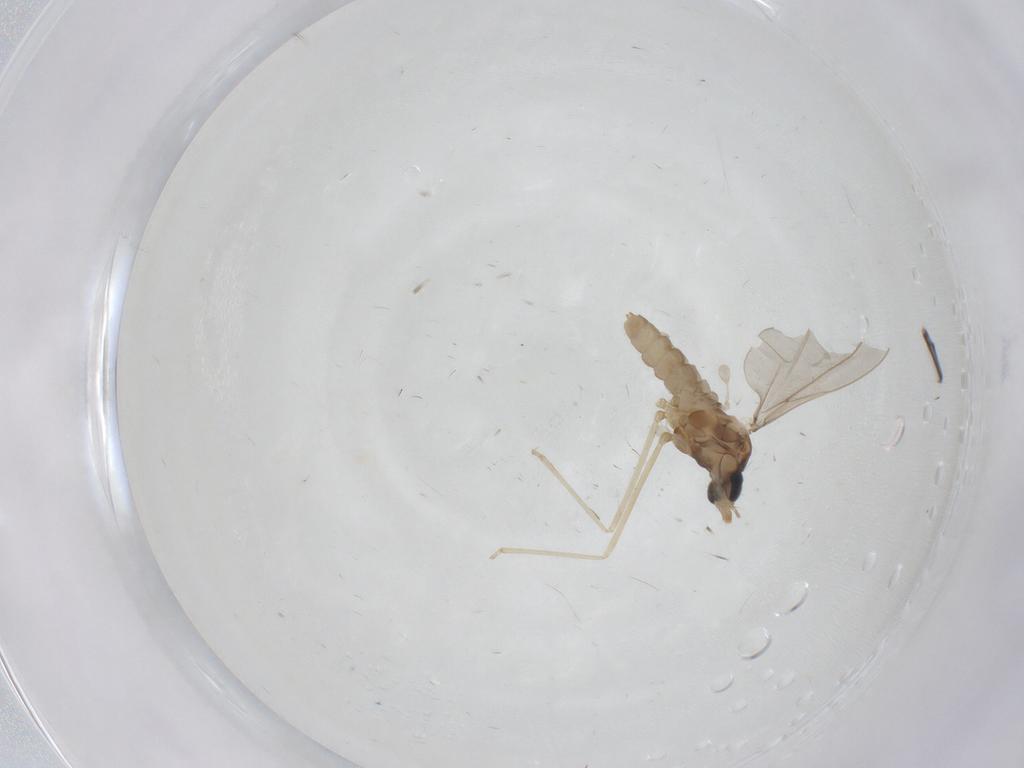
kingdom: Animalia
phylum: Arthropoda
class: Insecta
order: Diptera
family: Cecidomyiidae
